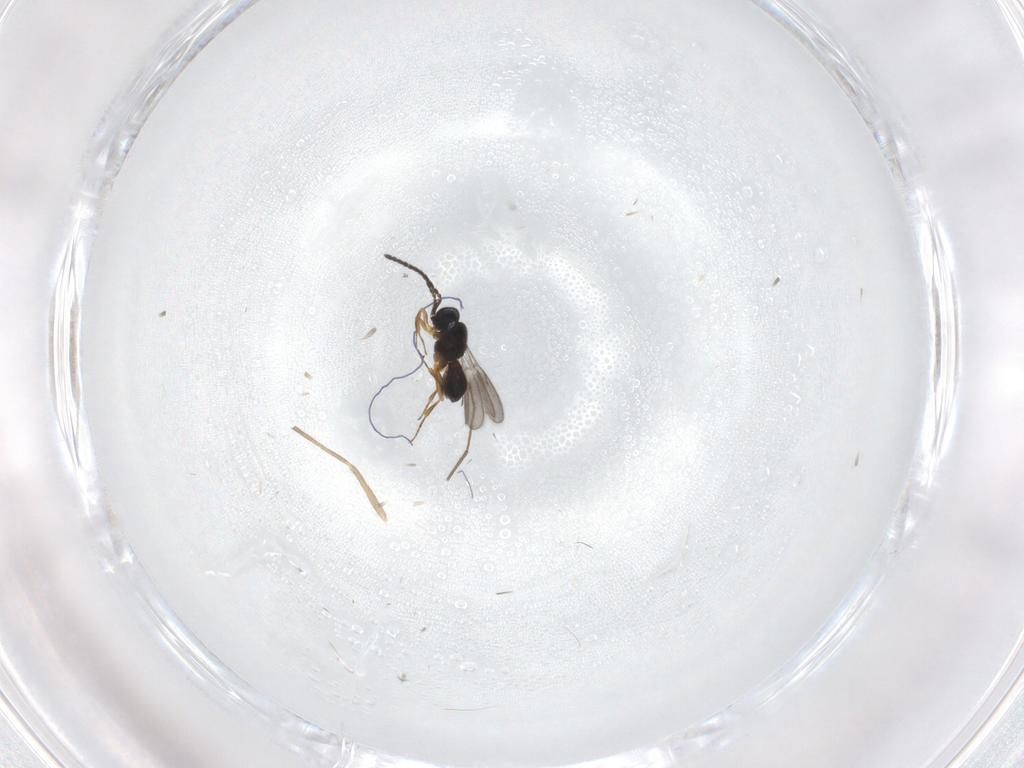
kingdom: Animalia
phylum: Arthropoda
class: Insecta
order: Hymenoptera
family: Scelionidae
